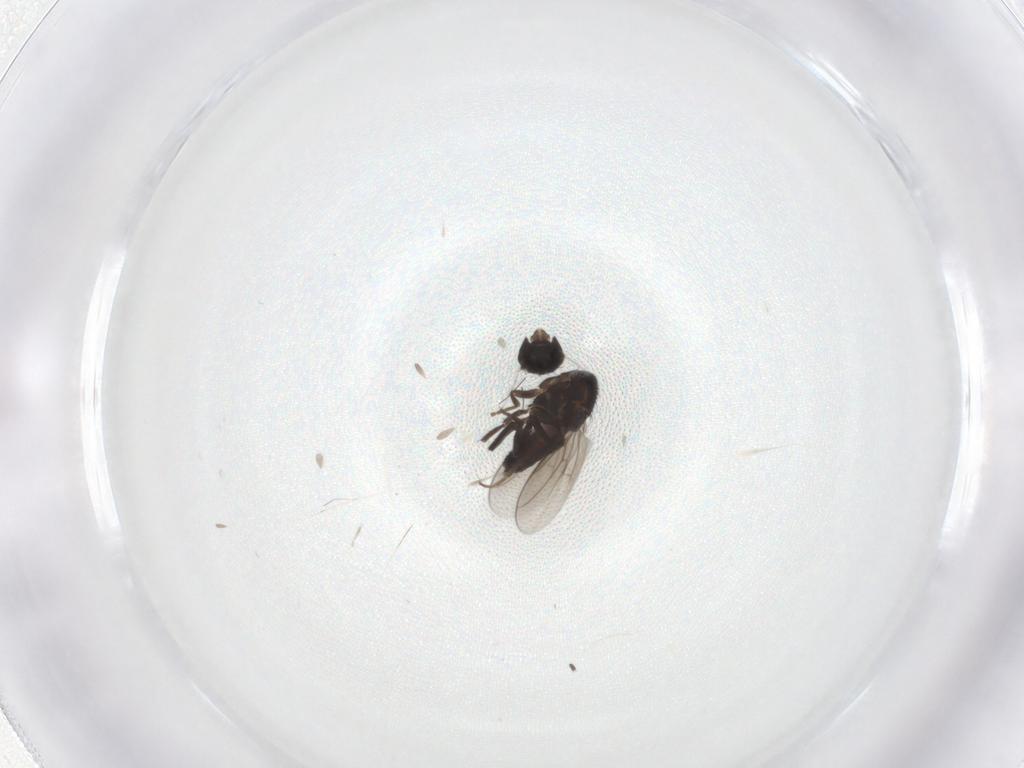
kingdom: Animalia
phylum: Arthropoda
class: Insecta
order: Diptera
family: Sphaeroceridae
